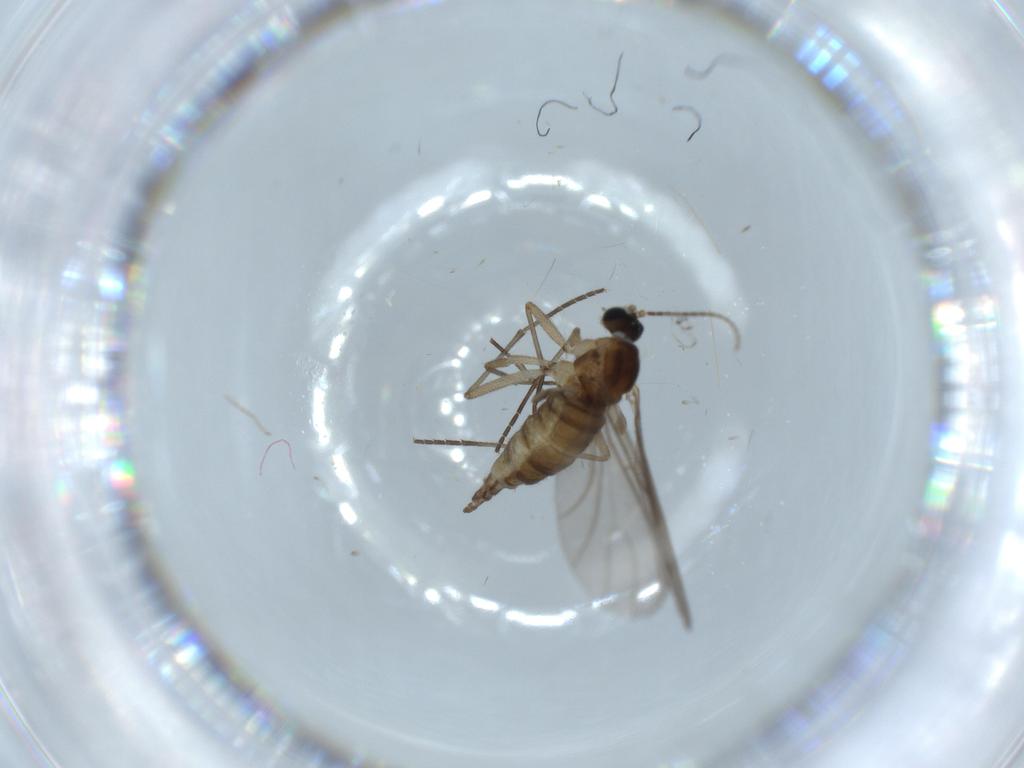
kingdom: Animalia
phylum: Arthropoda
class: Insecta
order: Diptera
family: Sciaridae
